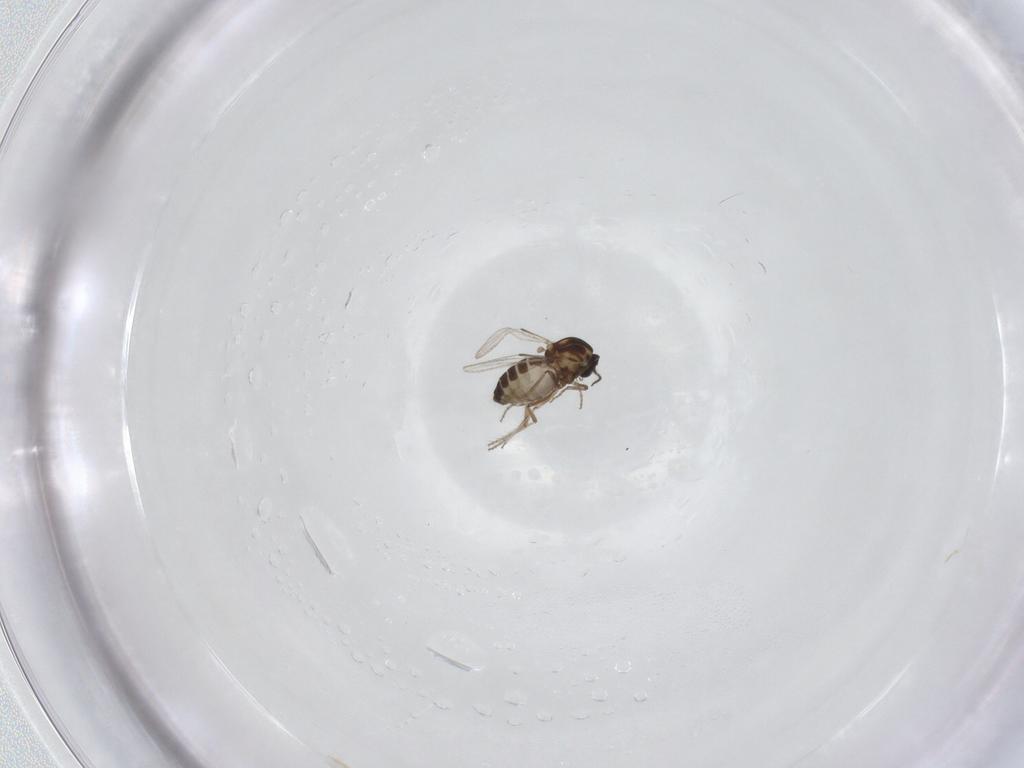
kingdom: Animalia
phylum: Arthropoda
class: Insecta
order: Diptera
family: Ceratopogonidae
